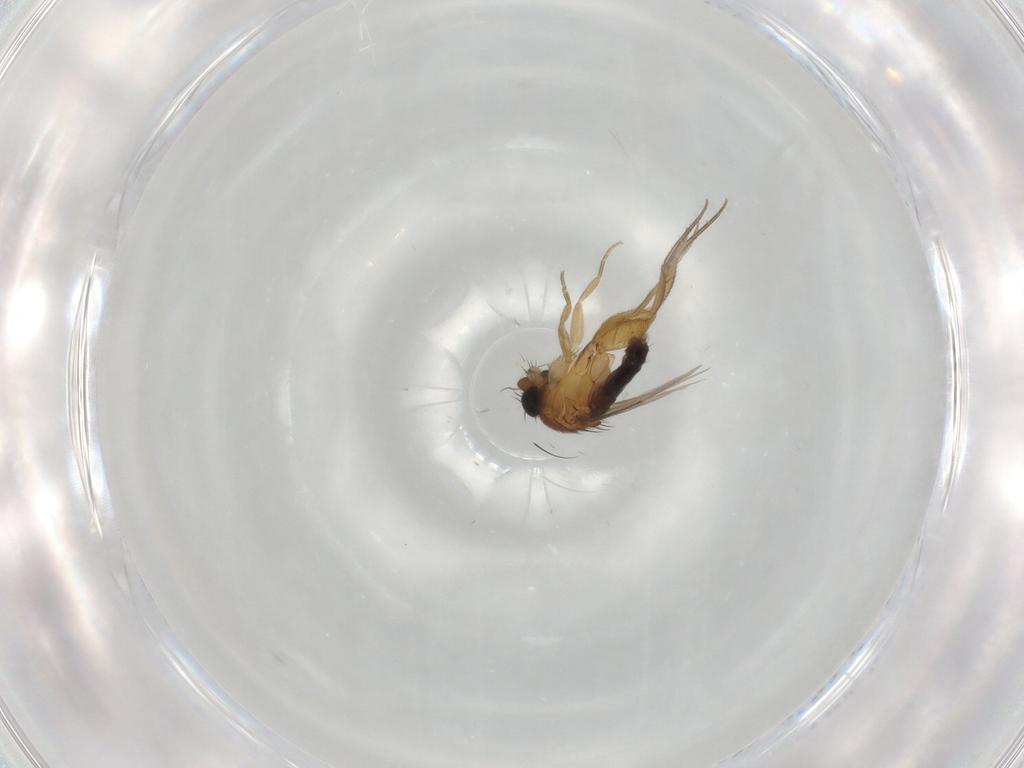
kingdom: Animalia
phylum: Arthropoda
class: Insecta
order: Diptera
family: Phoridae
